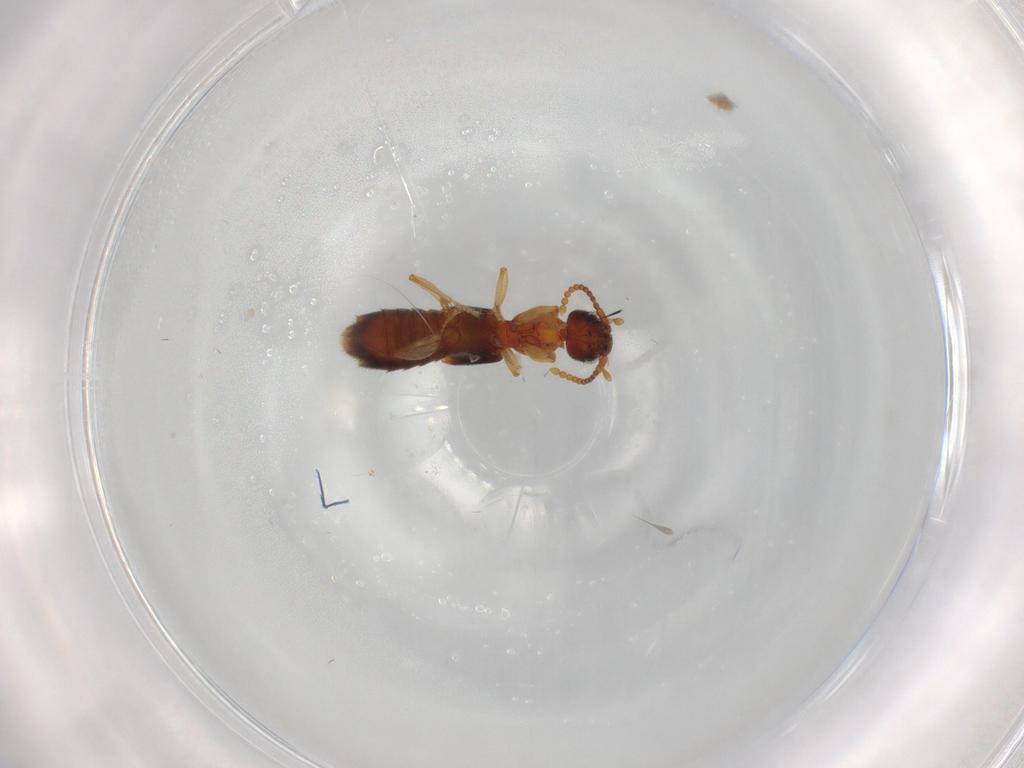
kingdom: Animalia
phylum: Arthropoda
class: Insecta
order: Coleoptera
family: Staphylinidae
